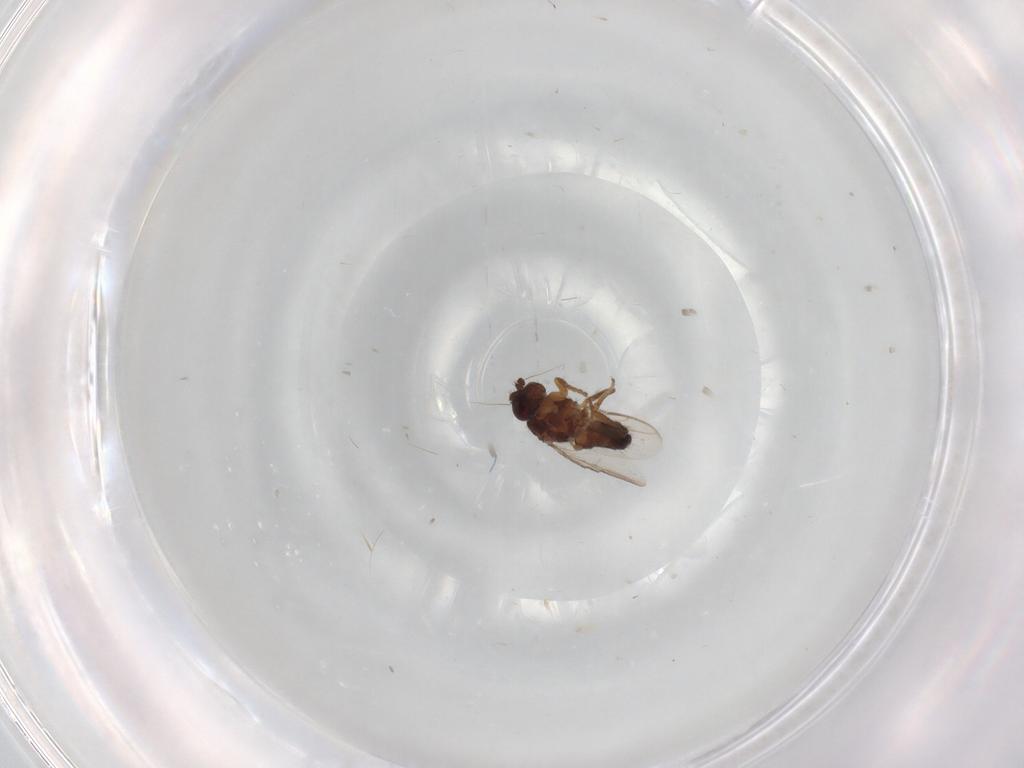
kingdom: Animalia
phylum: Arthropoda
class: Insecta
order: Diptera
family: Sphaeroceridae
